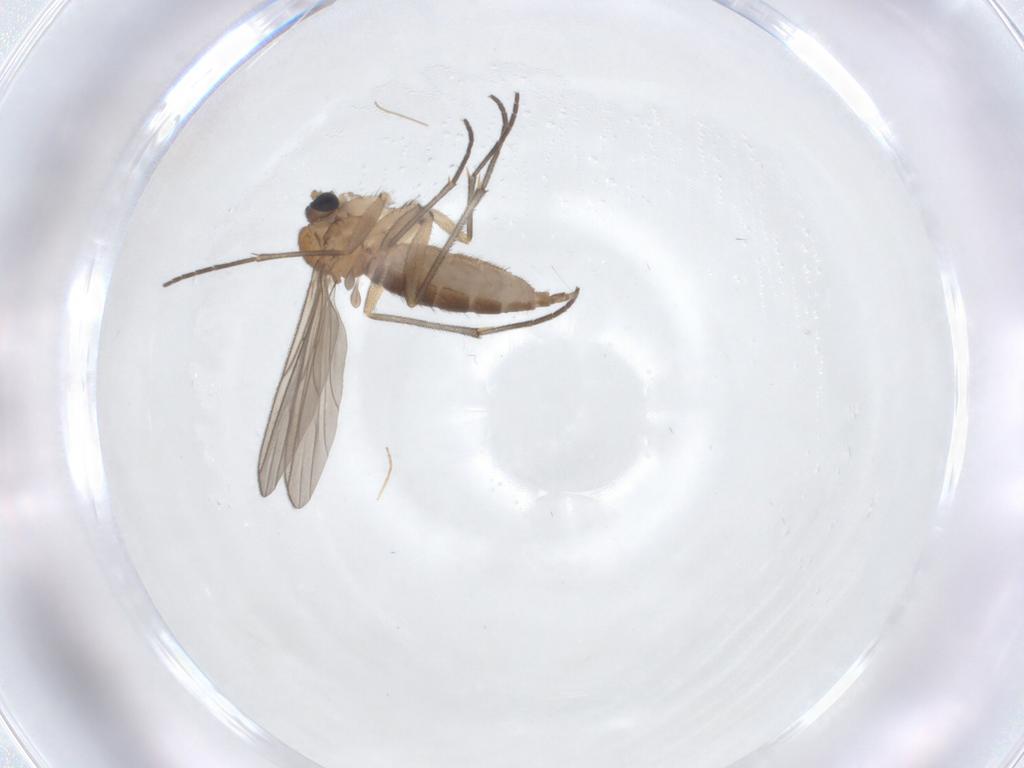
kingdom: Animalia
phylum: Arthropoda
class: Insecta
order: Diptera
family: Sciaridae
